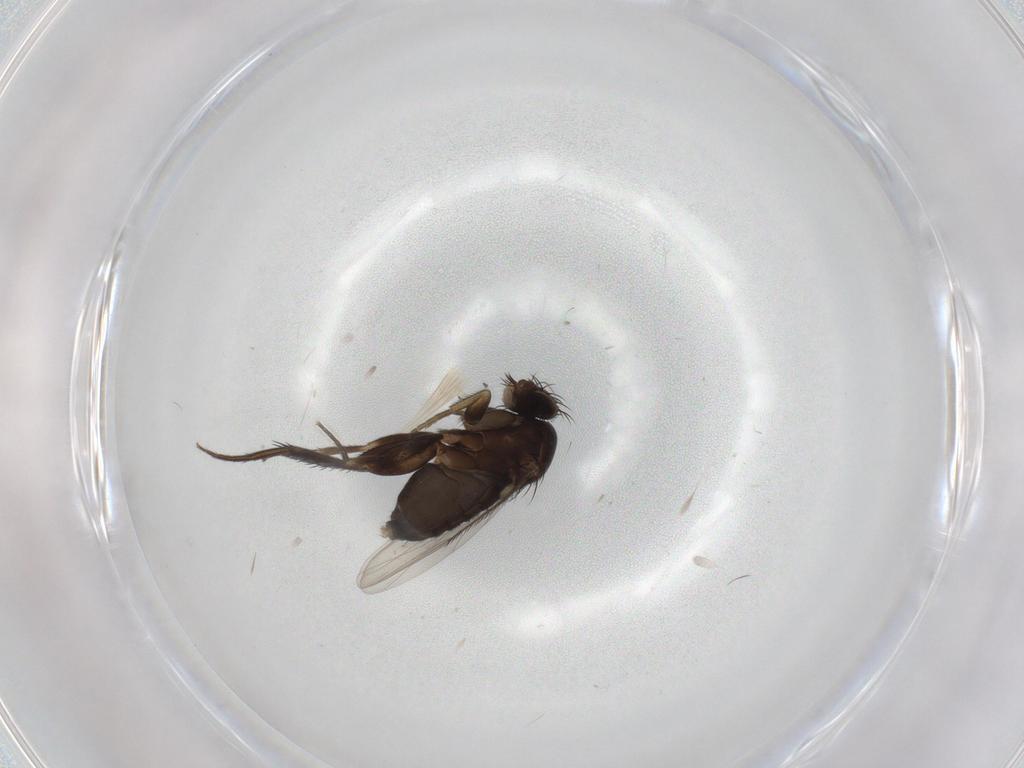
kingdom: Animalia
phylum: Arthropoda
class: Insecta
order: Diptera
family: Phoridae
